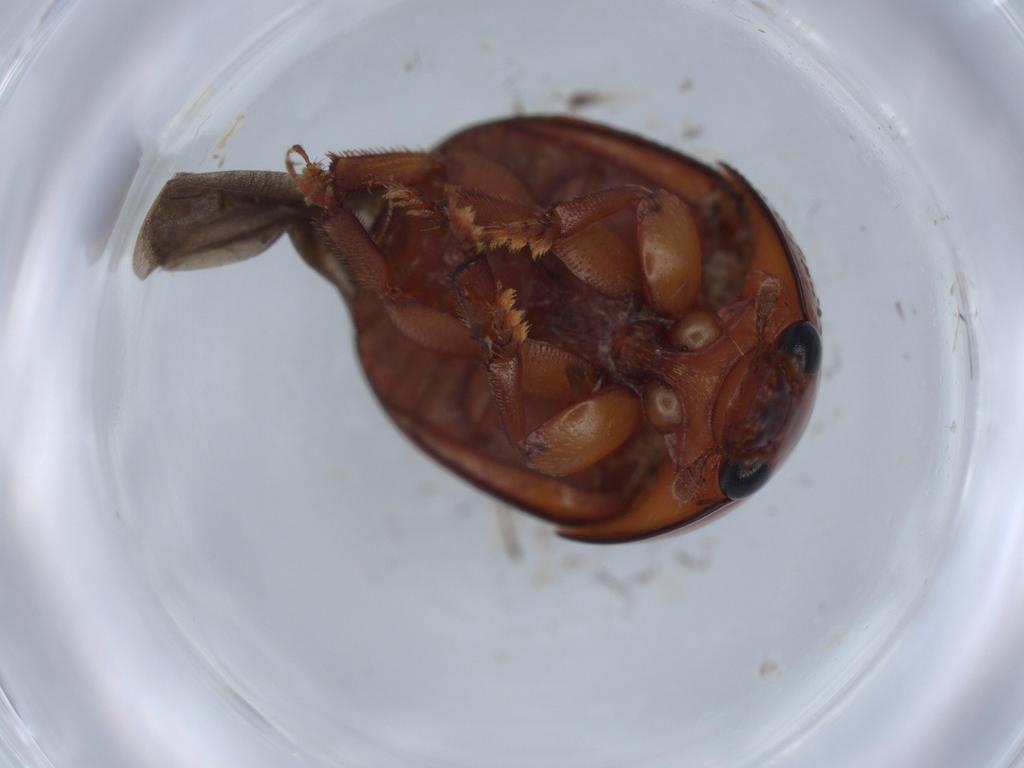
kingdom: Animalia
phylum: Arthropoda
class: Insecta
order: Coleoptera
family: Nitidulidae
